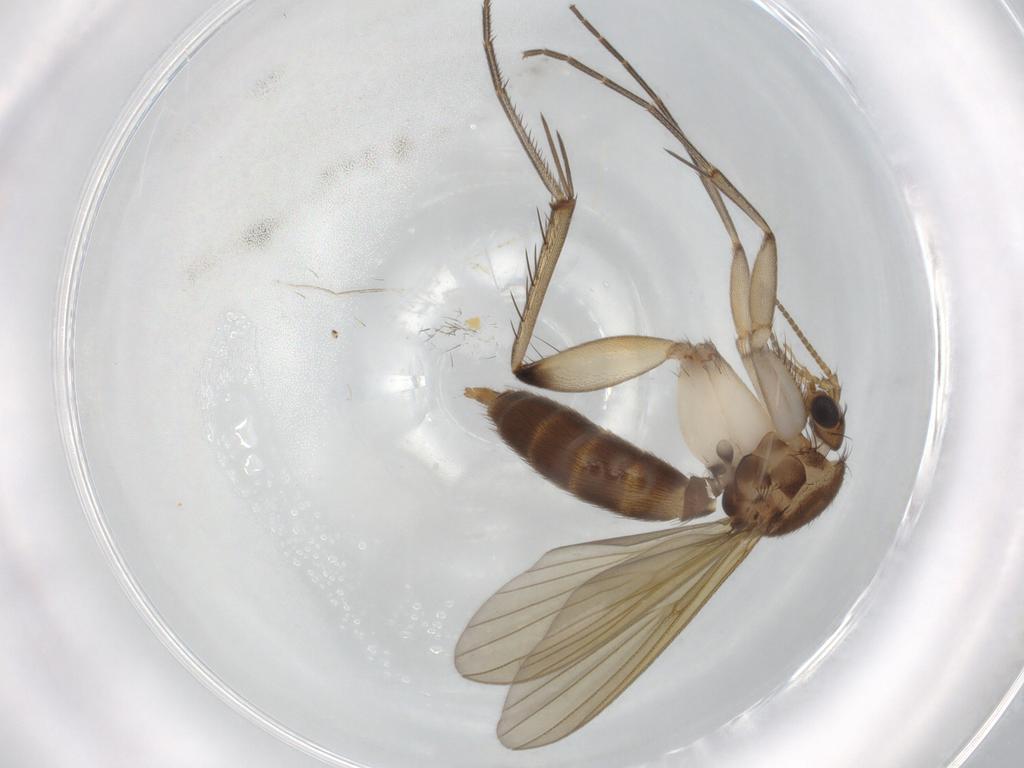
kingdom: Animalia
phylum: Arthropoda
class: Insecta
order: Diptera
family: Mycetophilidae
